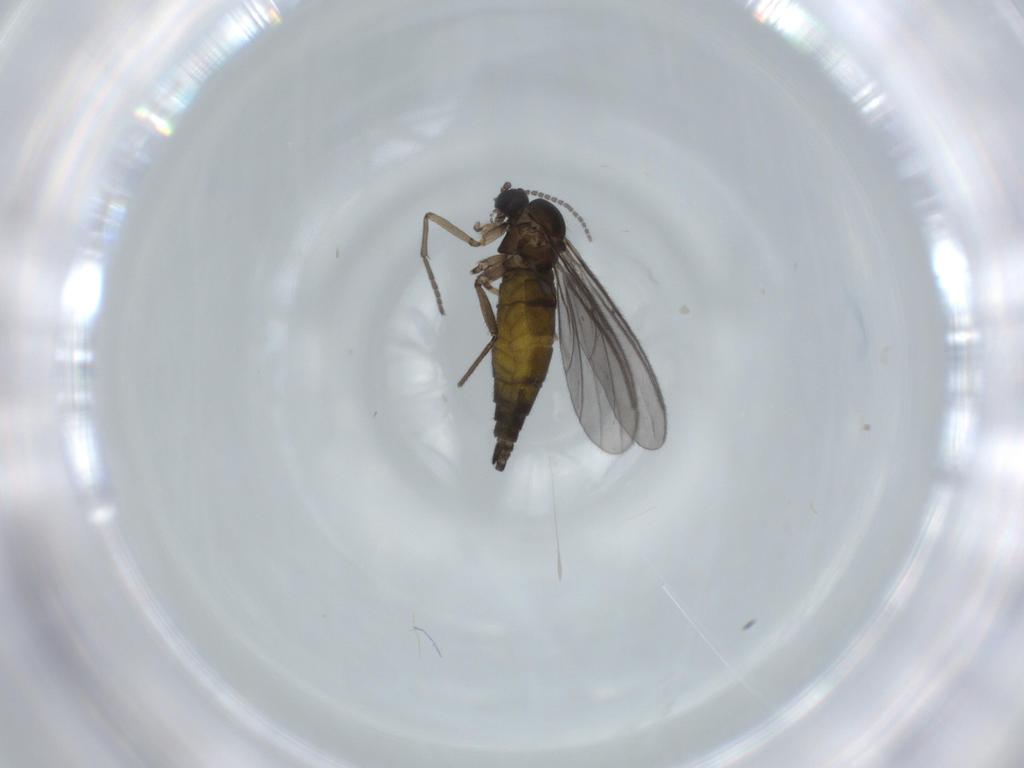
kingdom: Animalia
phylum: Arthropoda
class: Insecta
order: Diptera
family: Sciaridae
